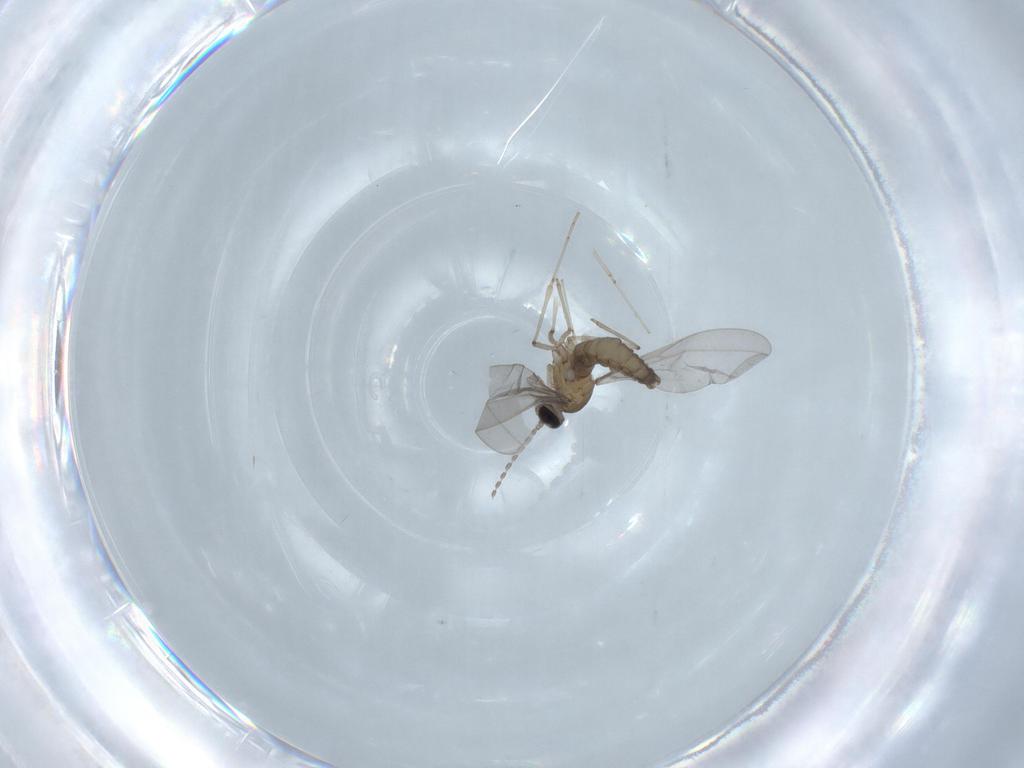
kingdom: Animalia
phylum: Arthropoda
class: Insecta
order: Diptera
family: Cecidomyiidae
